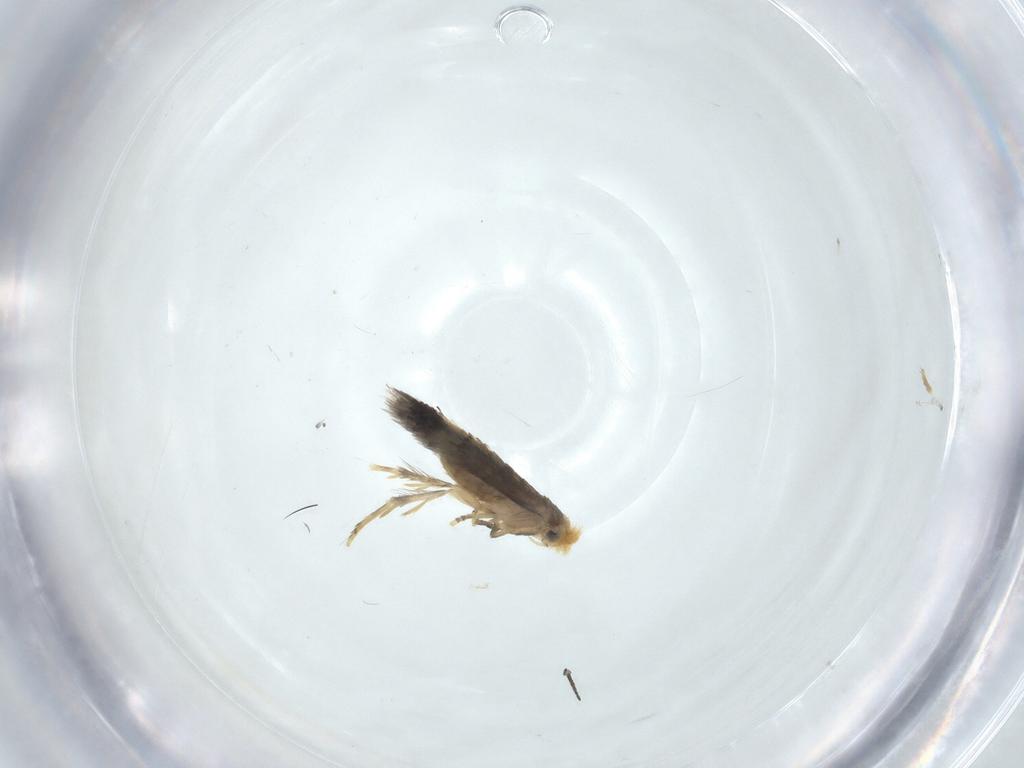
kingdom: Animalia
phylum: Arthropoda
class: Insecta
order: Lepidoptera
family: Nepticulidae
